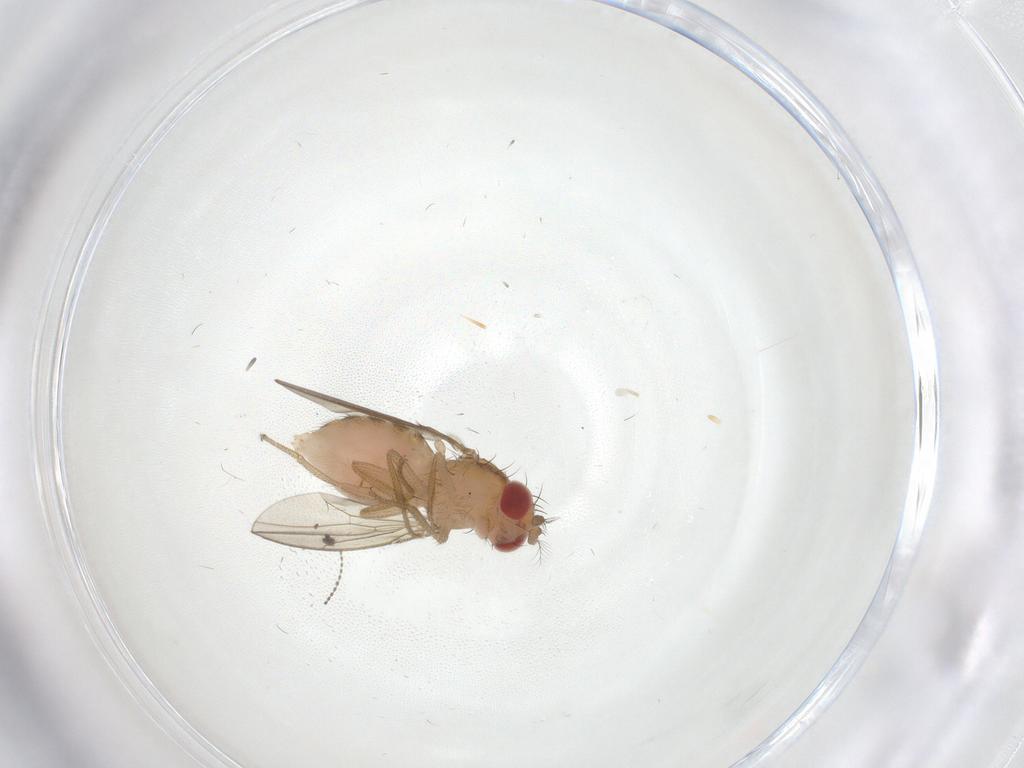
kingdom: Animalia
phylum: Arthropoda
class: Insecta
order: Diptera
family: Drosophilidae
